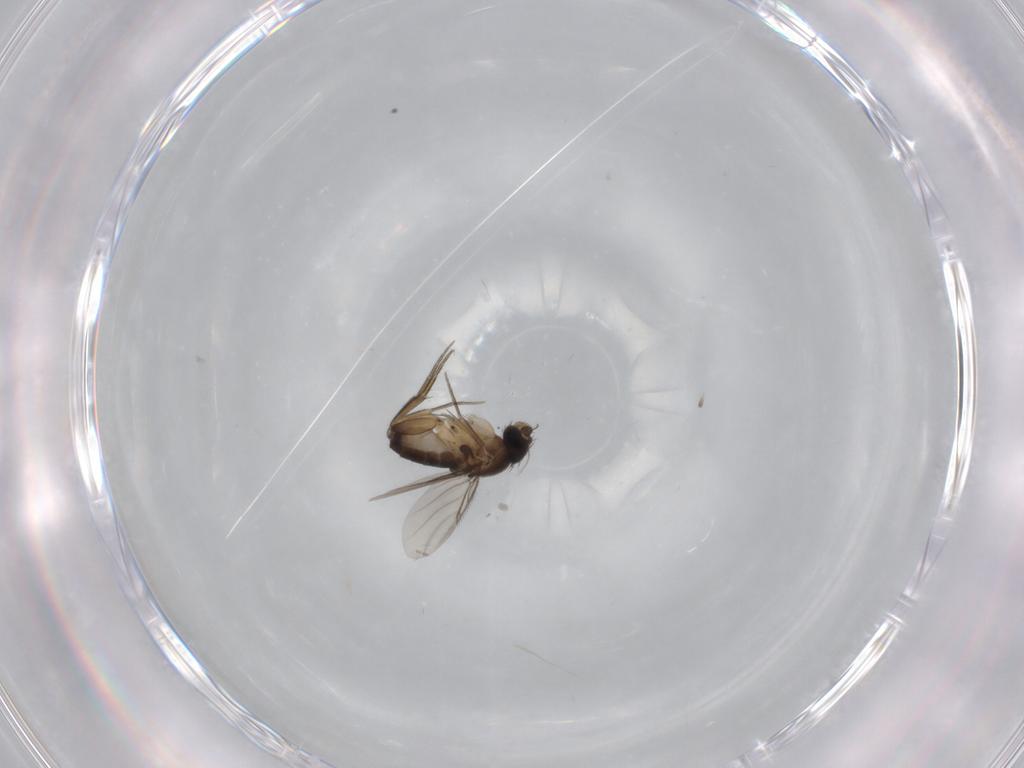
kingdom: Animalia
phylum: Arthropoda
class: Insecta
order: Diptera
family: Phoridae
